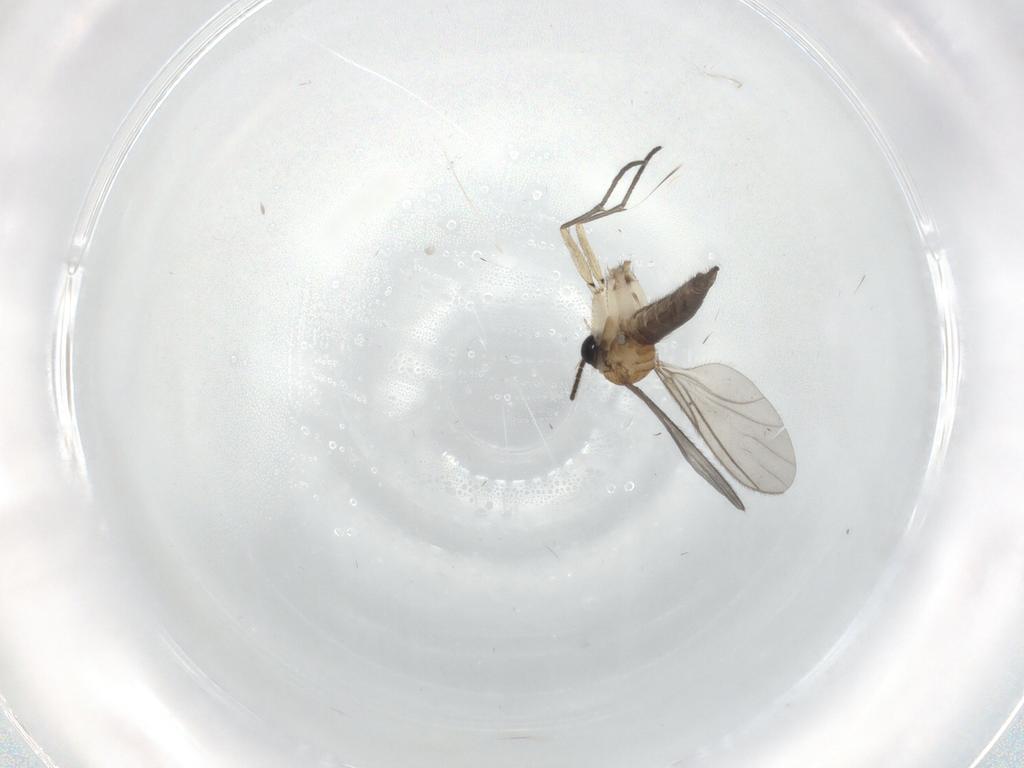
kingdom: Animalia
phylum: Arthropoda
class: Insecta
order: Diptera
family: Sciaridae
